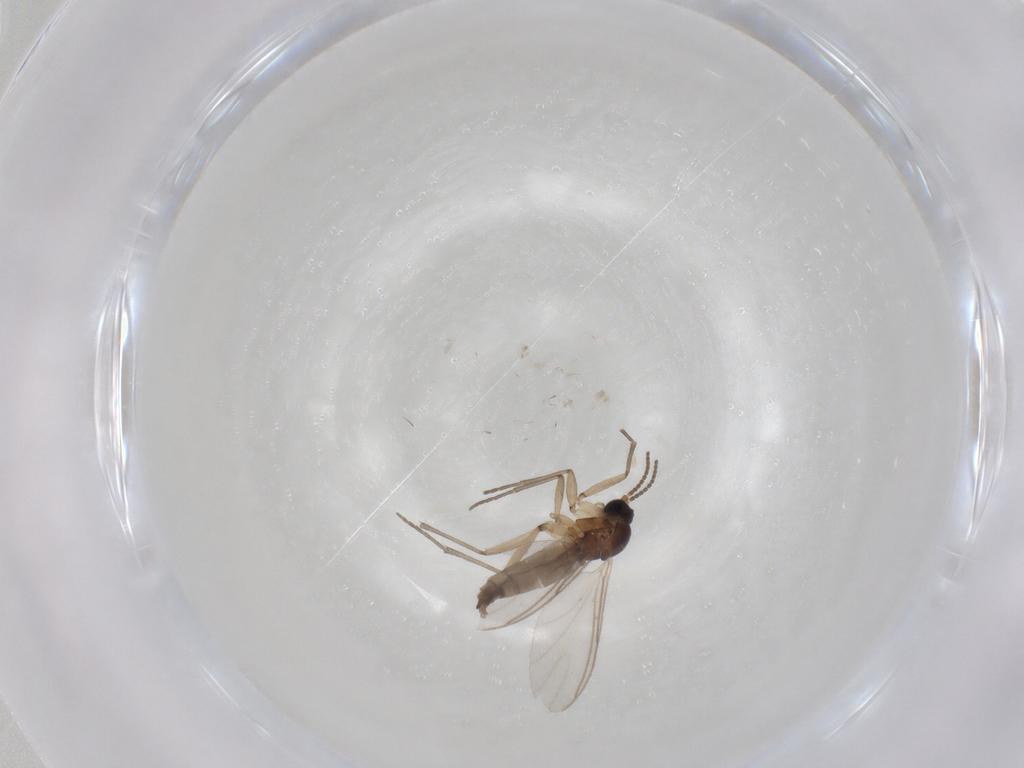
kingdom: Animalia
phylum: Arthropoda
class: Insecta
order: Diptera
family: Sciaridae
